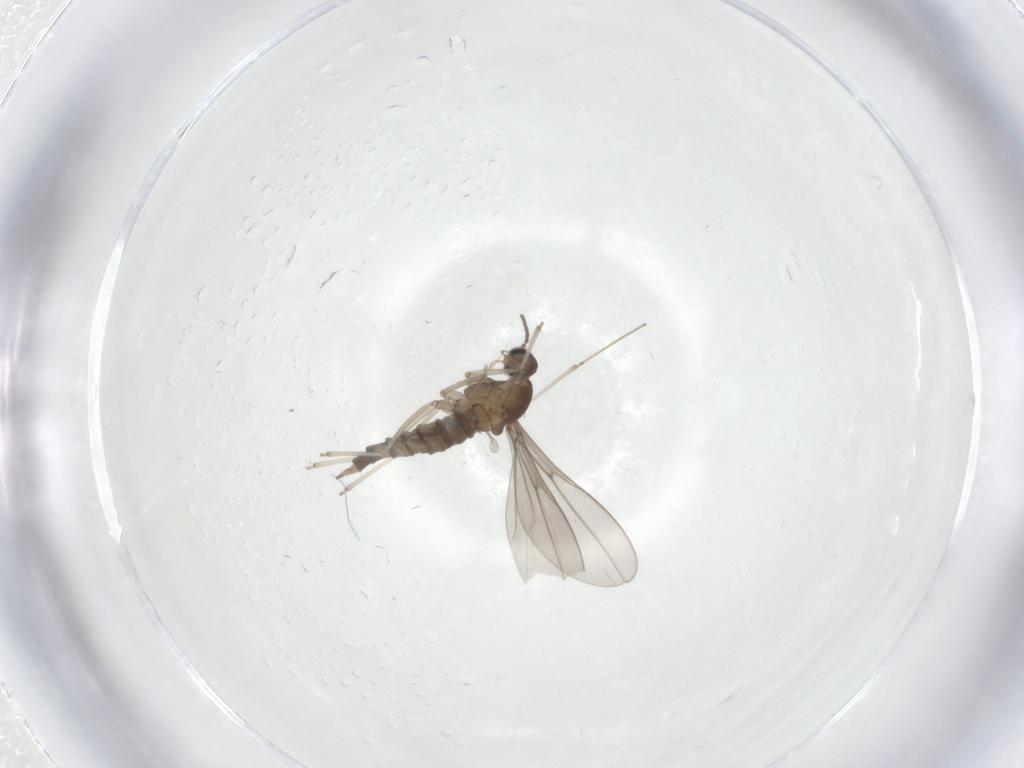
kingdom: Animalia
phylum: Arthropoda
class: Insecta
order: Diptera
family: Cecidomyiidae
